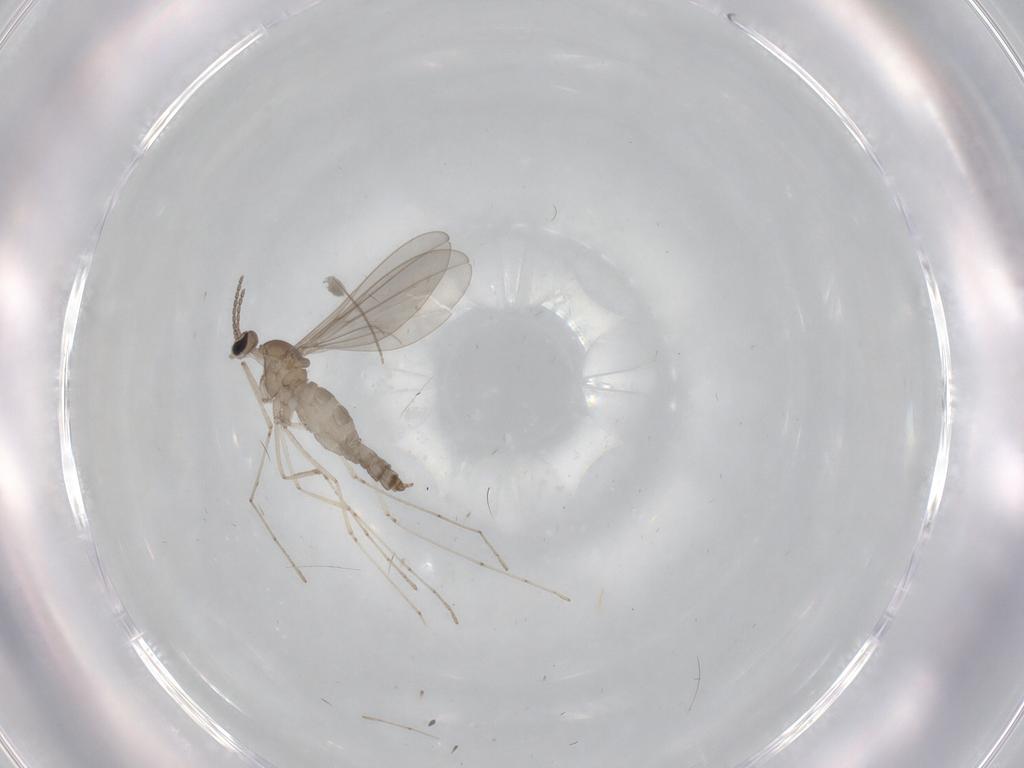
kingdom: Animalia
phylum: Arthropoda
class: Insecta
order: Diptera
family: Cecidomyiidae
